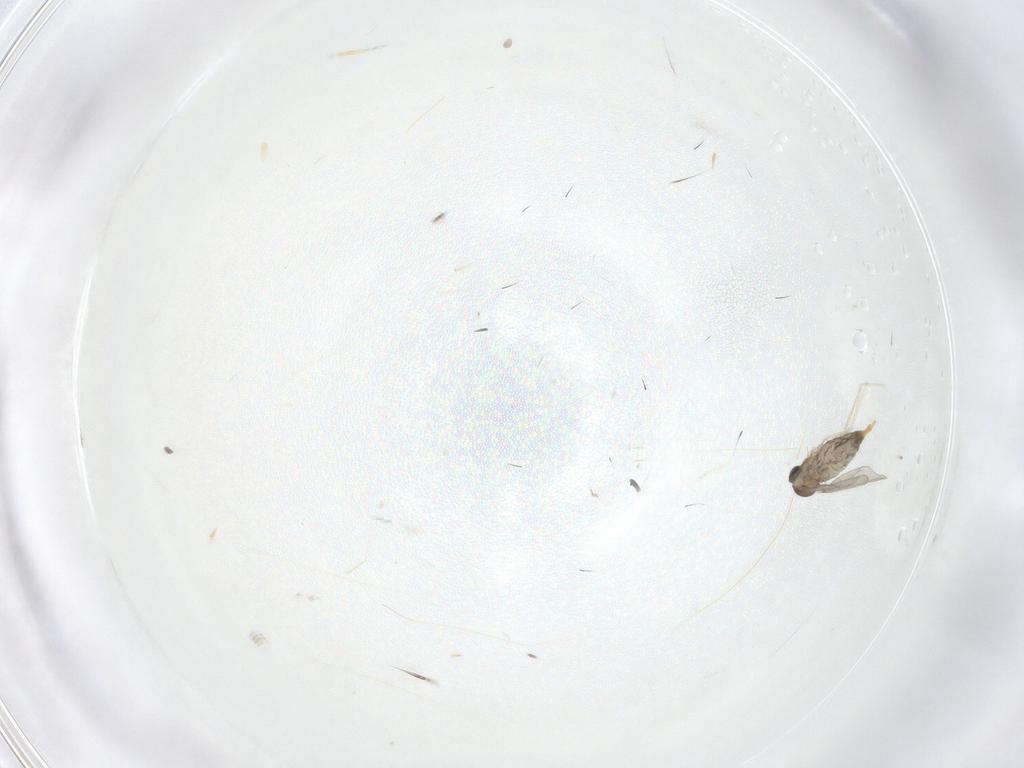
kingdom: Animalia
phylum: Arthropoda
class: Insecta
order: Diptera
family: Cecidomyiidae
